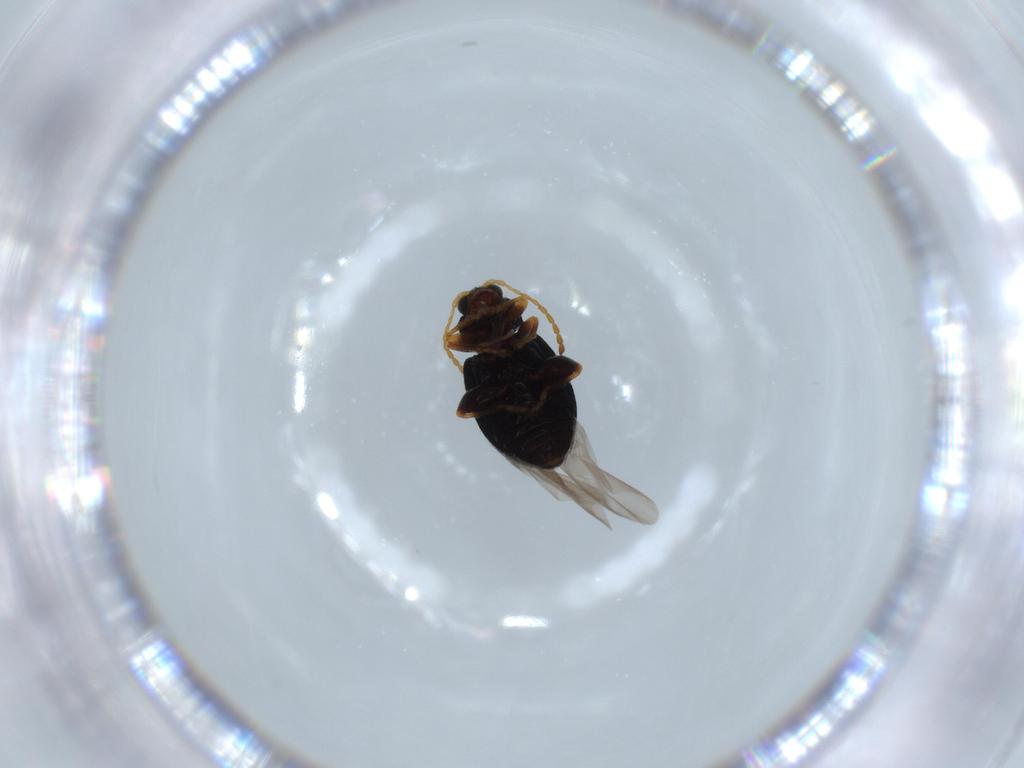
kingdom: Animalia
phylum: Arthropoda
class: Insecta
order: Coleoptera
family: Chrysomelidae
